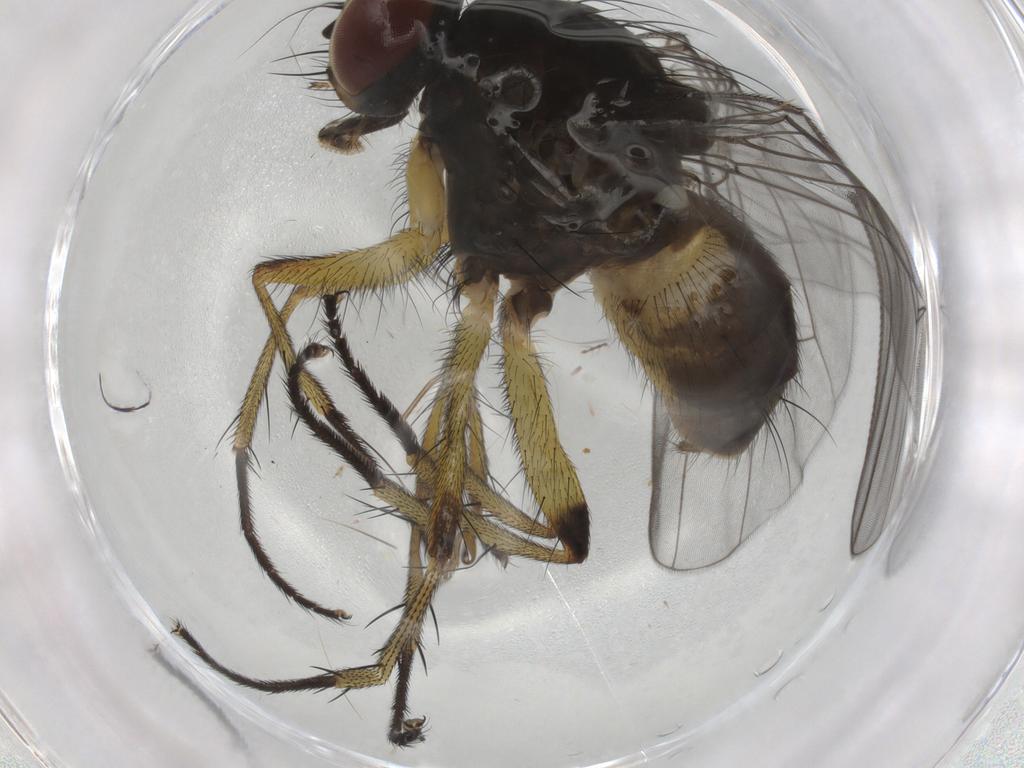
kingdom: Animalia
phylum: Arthropoda
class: Insecta
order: Diptera
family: Muscidae
